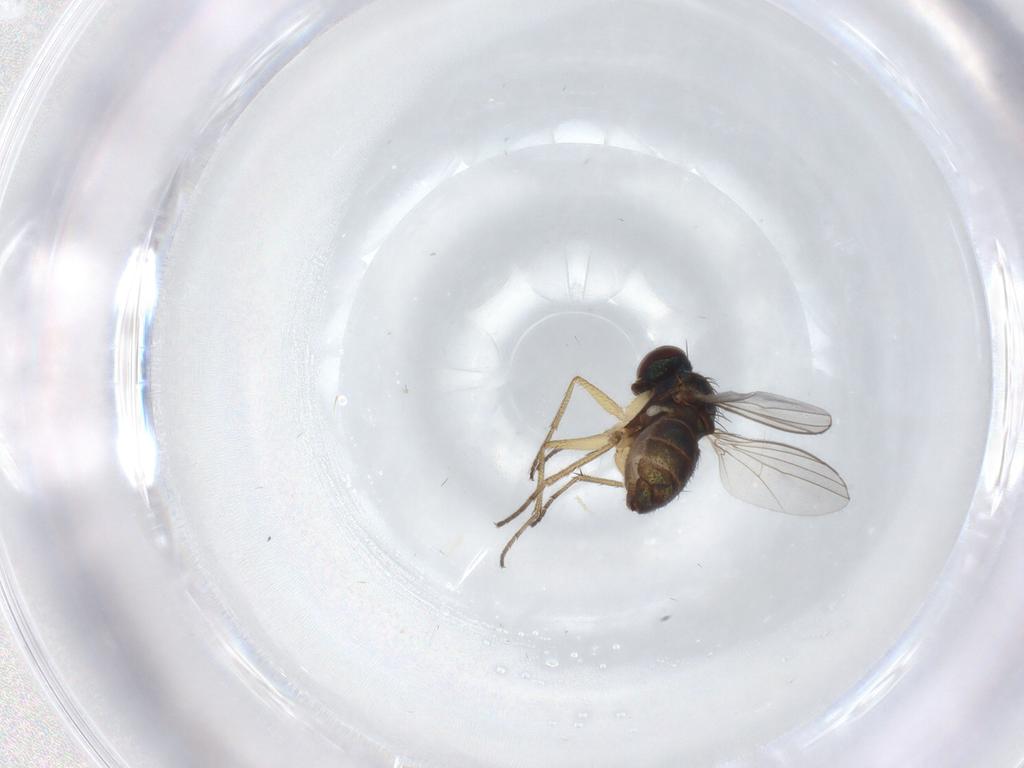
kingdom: Animalia
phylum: Arthropoda
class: Insecta
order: Diptera
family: Dolichopodidae
